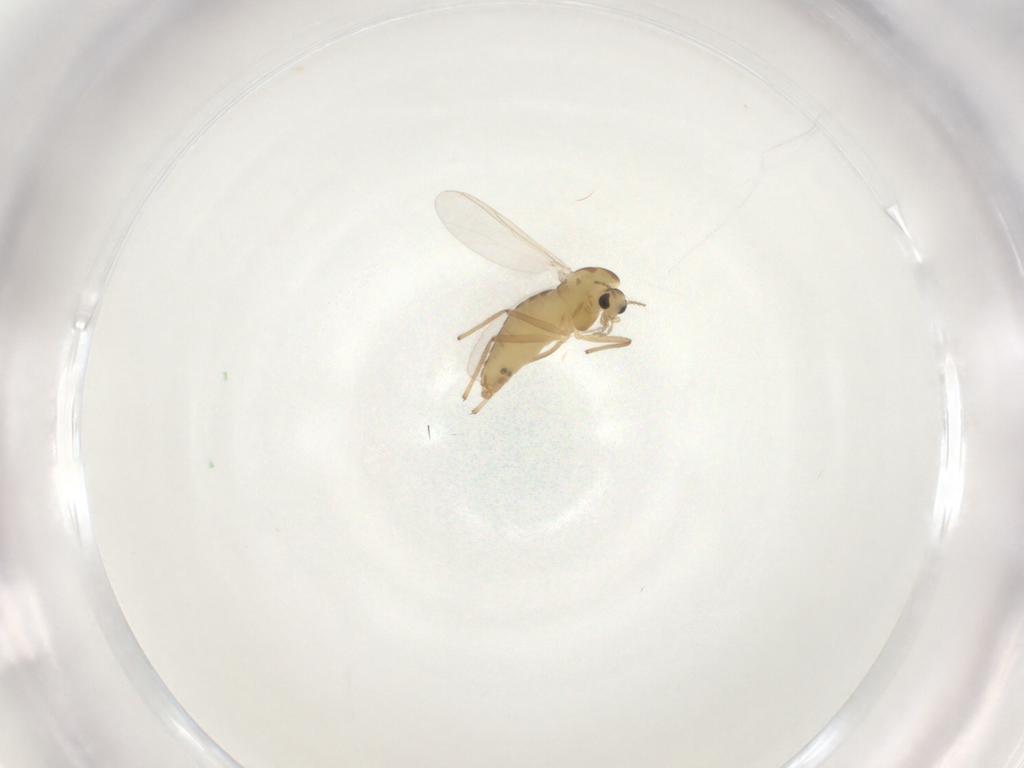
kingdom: Animalia
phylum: Arthropoda
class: Insecta
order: Diptera
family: Chironomidae
